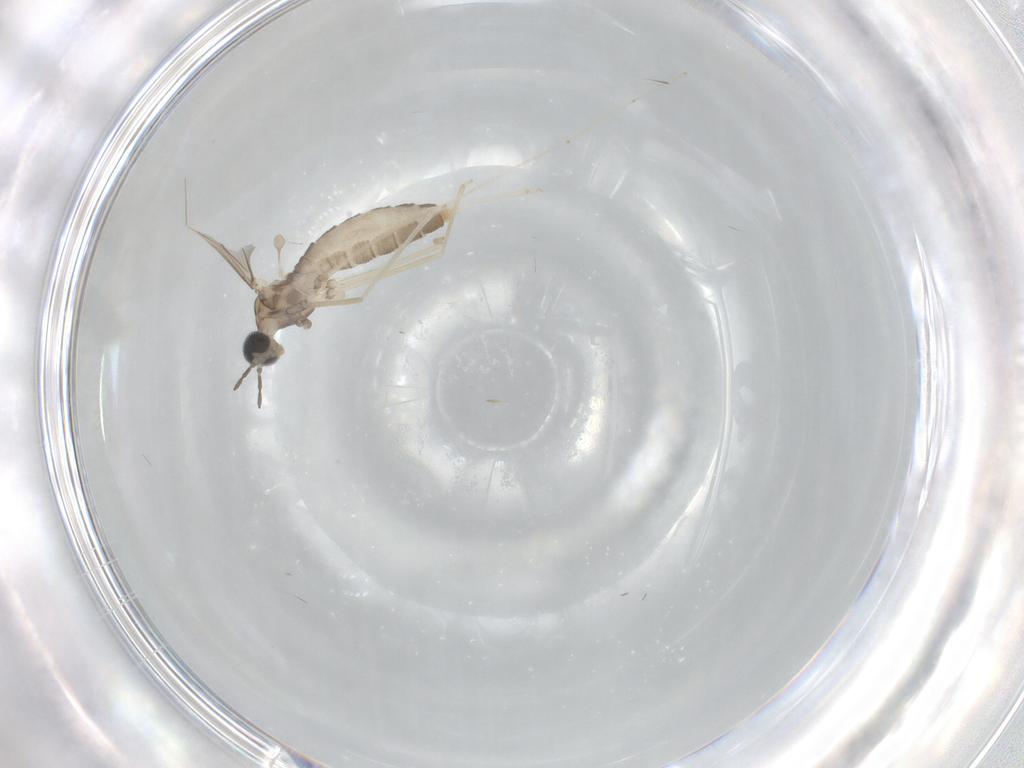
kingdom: Animalia
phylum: Arthropoda
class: Insecta
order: Diptera
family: Cecidomyiidae
